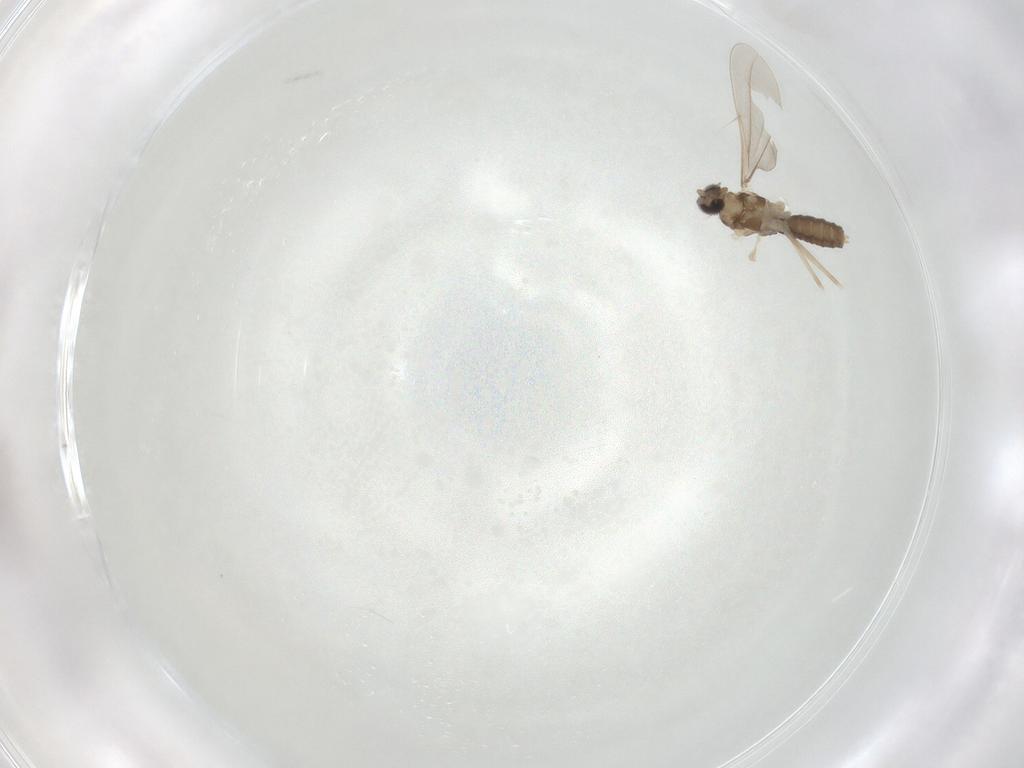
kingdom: Animalia
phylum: Arthropoda
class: Insecta
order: Diptera
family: Cecidomyiidae
